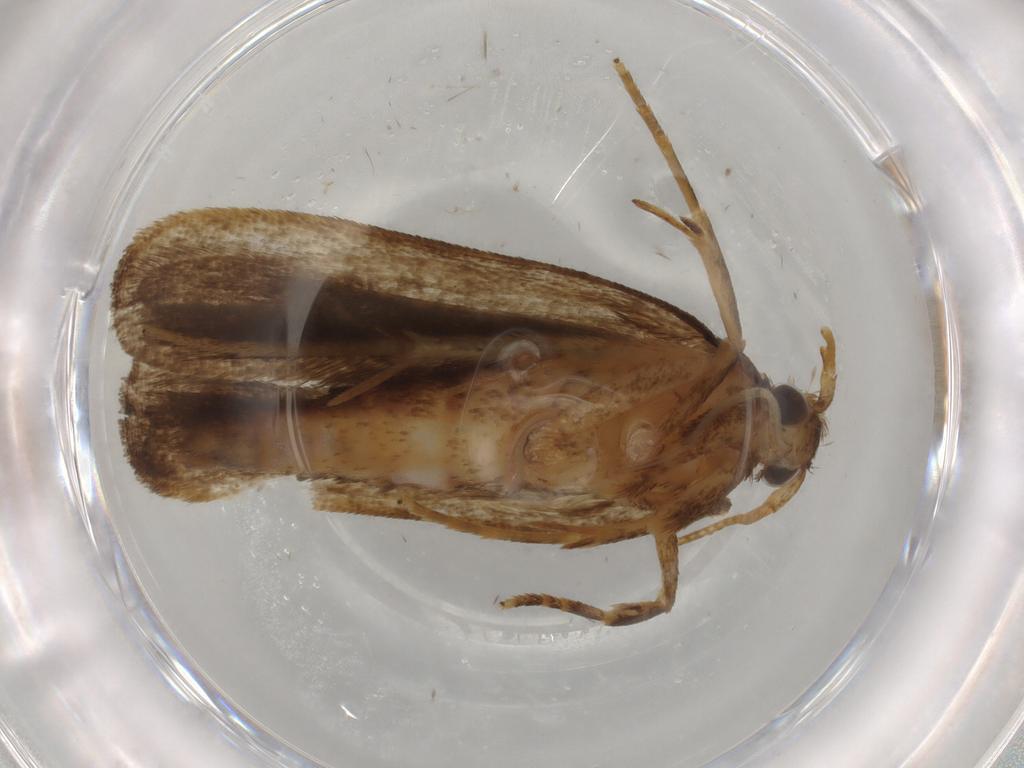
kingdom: Animalia
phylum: Arthropoda
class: Insecta
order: Lepidoptera
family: Autostichidae
